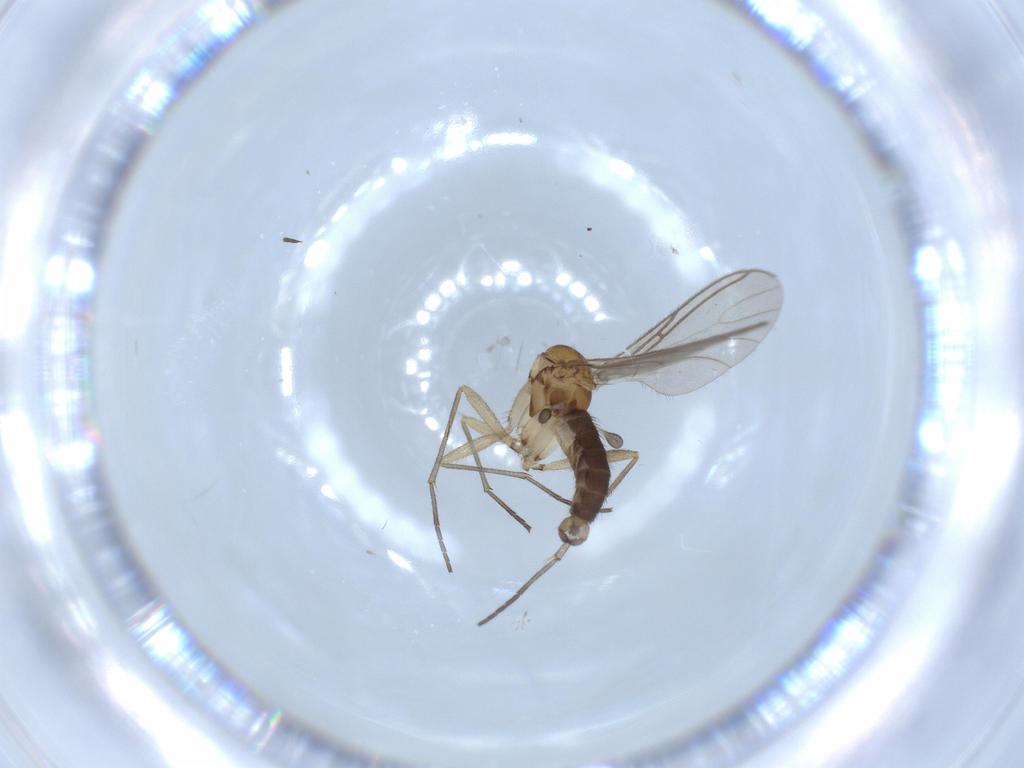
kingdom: Animalia
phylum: Arthropoda
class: Insecta
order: Diptera
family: Sciaridae
